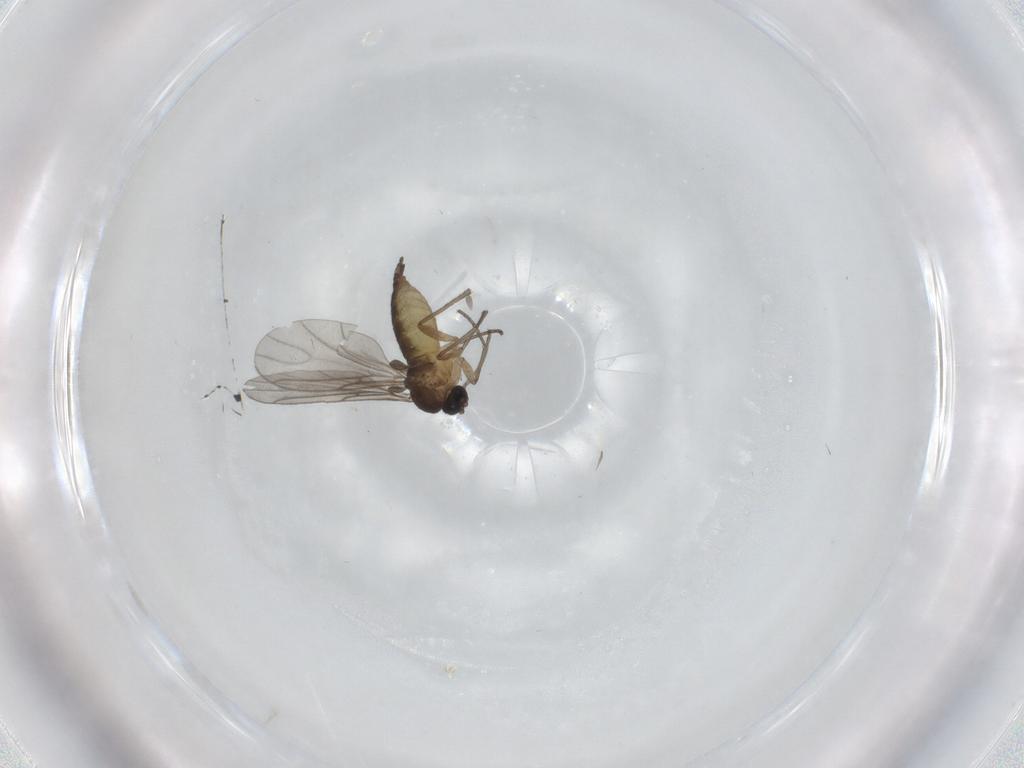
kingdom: Animalia
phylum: Arthropoda
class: Insecta
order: Diptera
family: Sciaridae
